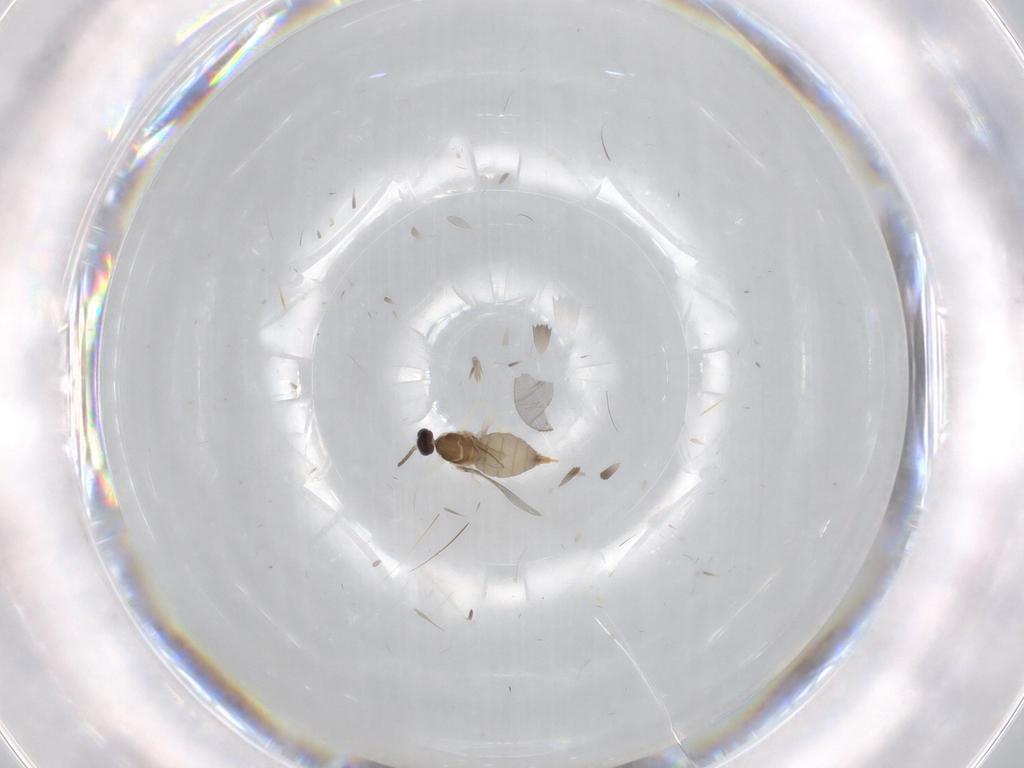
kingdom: Animalia
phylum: Arthropoda
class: Insecta
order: Diptera
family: Cecidomyiidae
